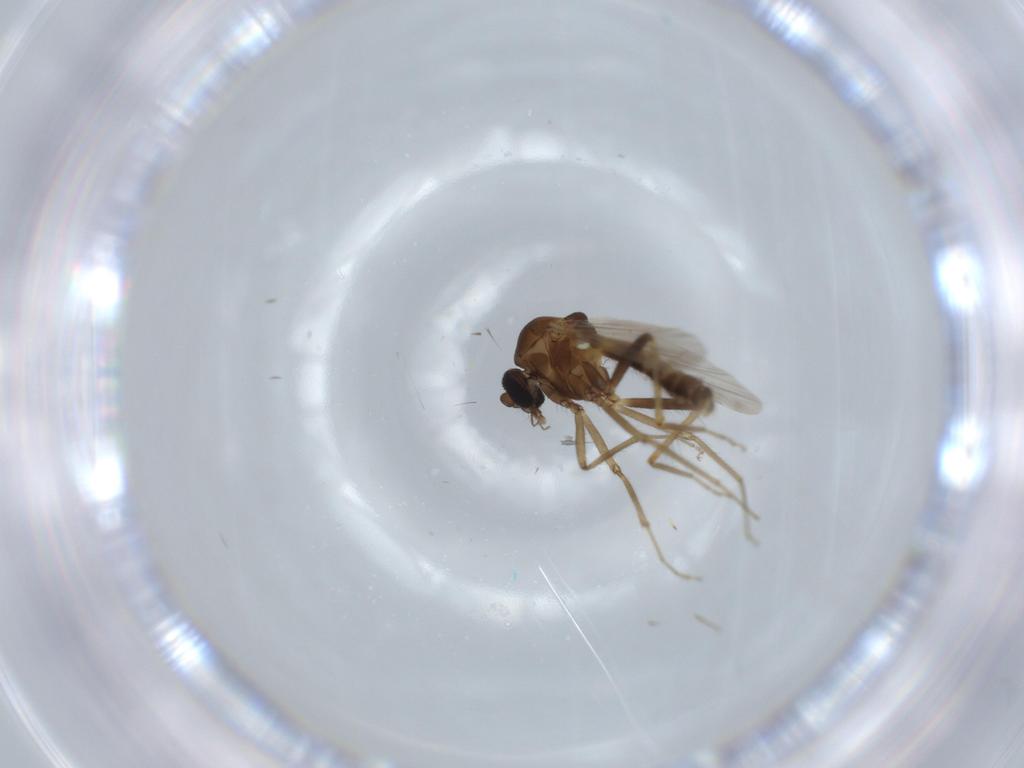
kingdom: Animalia
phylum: Arthropoda
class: Insecta
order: Diptera
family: Ceratopogonidae
